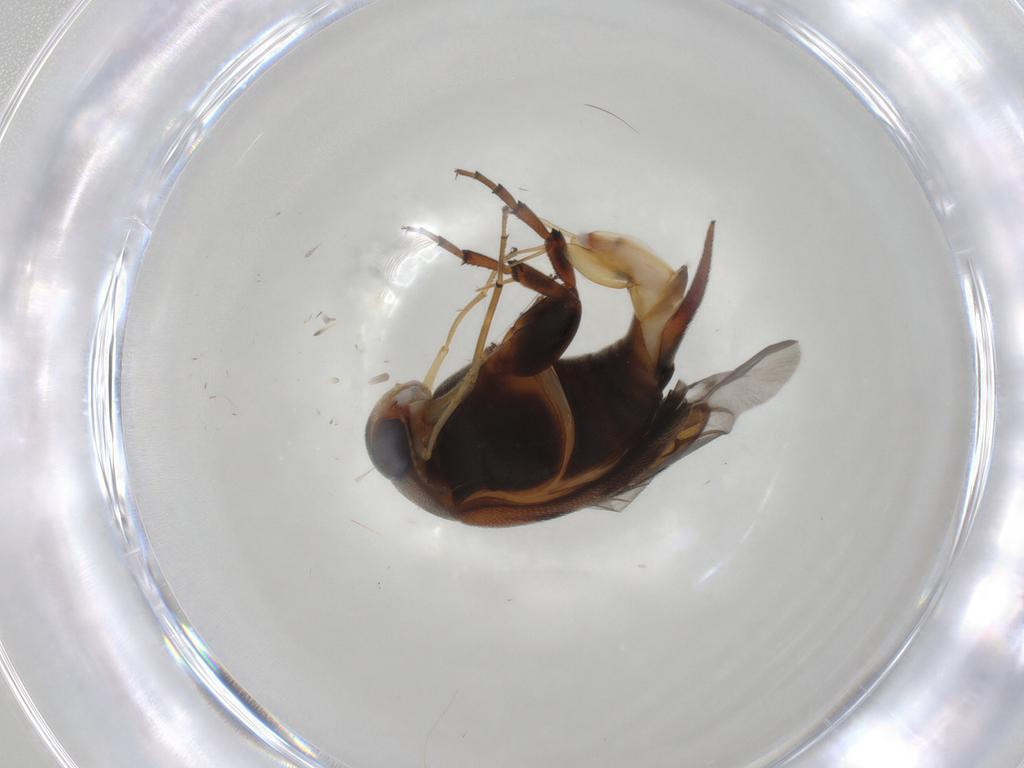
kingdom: Animalia
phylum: Arthropoda
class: Insecta
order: Coleoptera
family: Mordellidae
